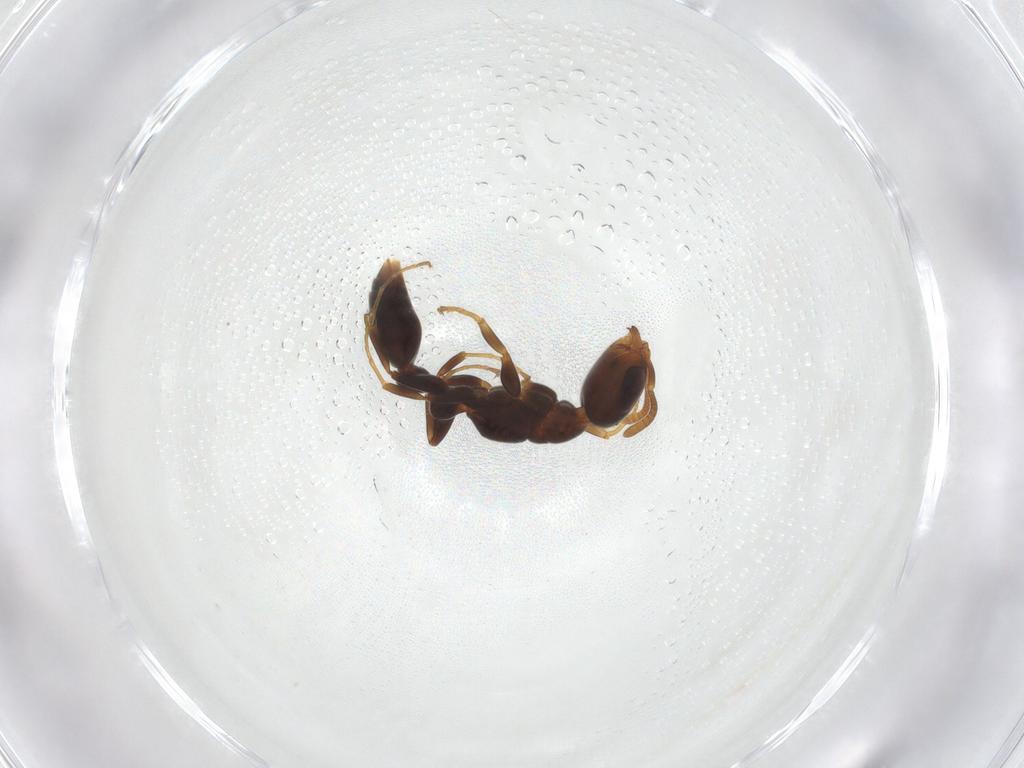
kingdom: Animalia
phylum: Arthropoda
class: Insecta
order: Hymenoptera
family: Formicidae
